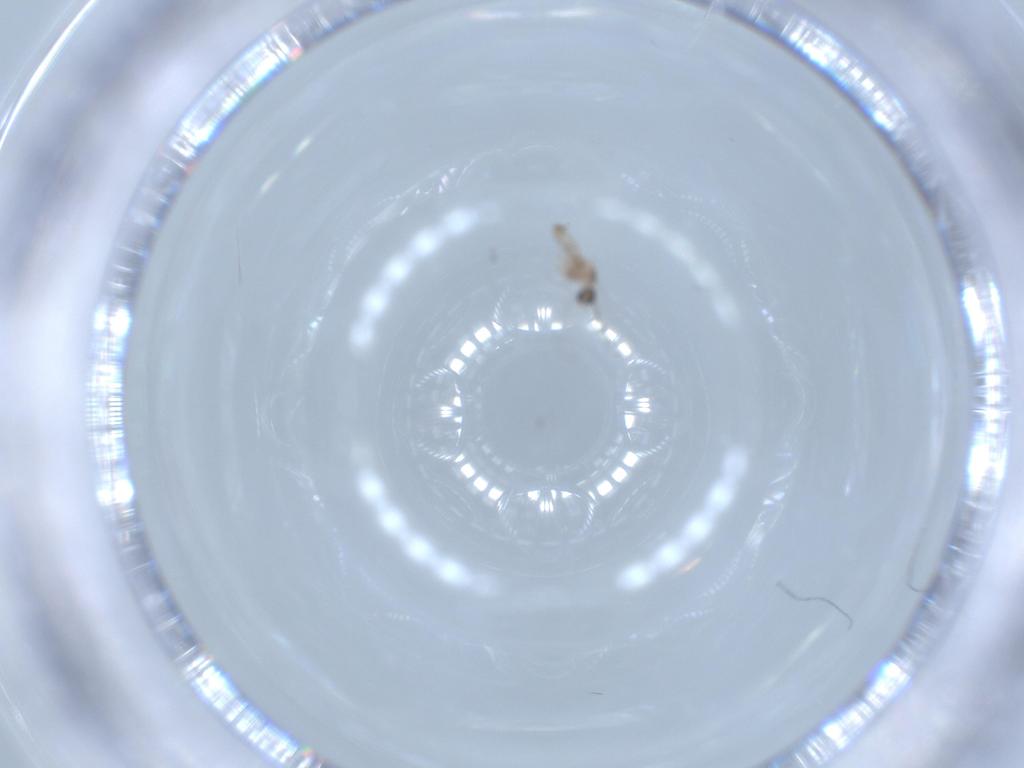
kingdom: Animalia
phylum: Arthropoda
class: Insecta
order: Diptera
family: Cecidomyiidae
